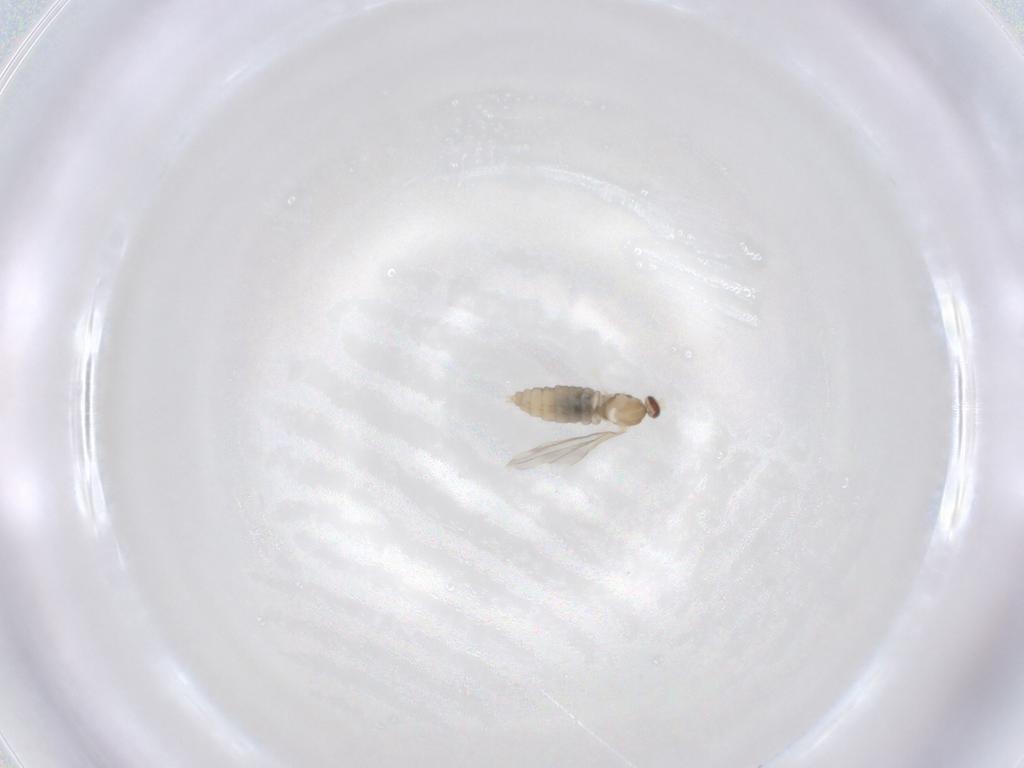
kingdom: Animalia
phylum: Arthropoda
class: Insecta
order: Diptera
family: Cecidomyiidae
